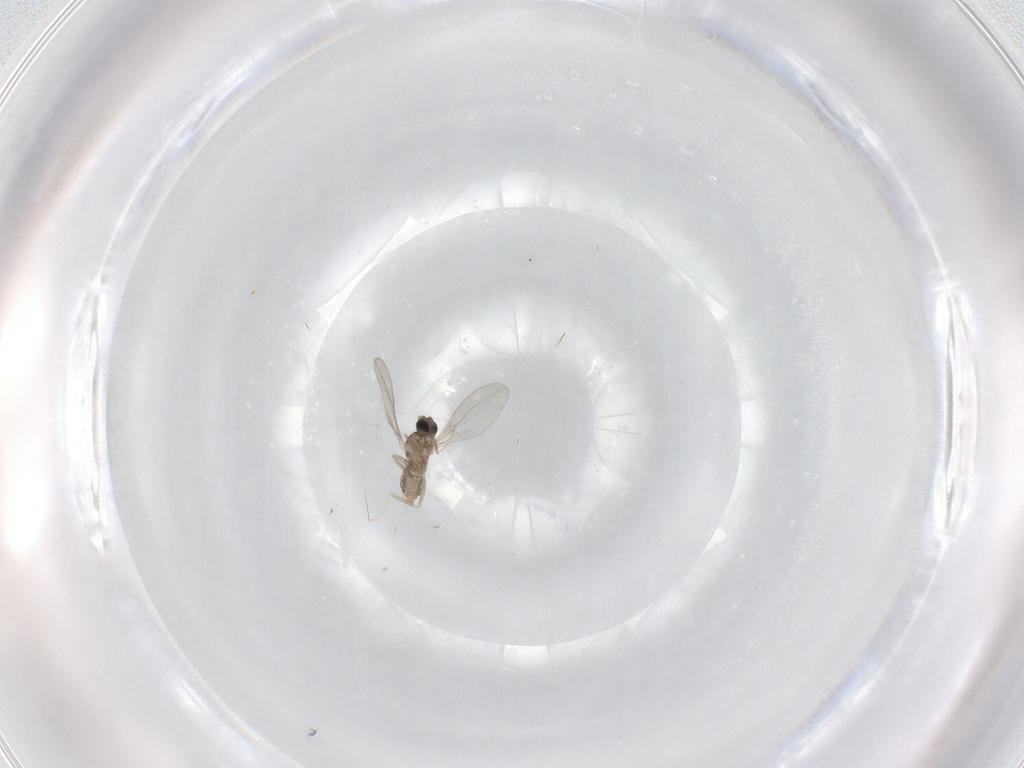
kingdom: Animalia
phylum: Arthropoda
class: Insecta
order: Diptera
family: Cecidomyiidae
